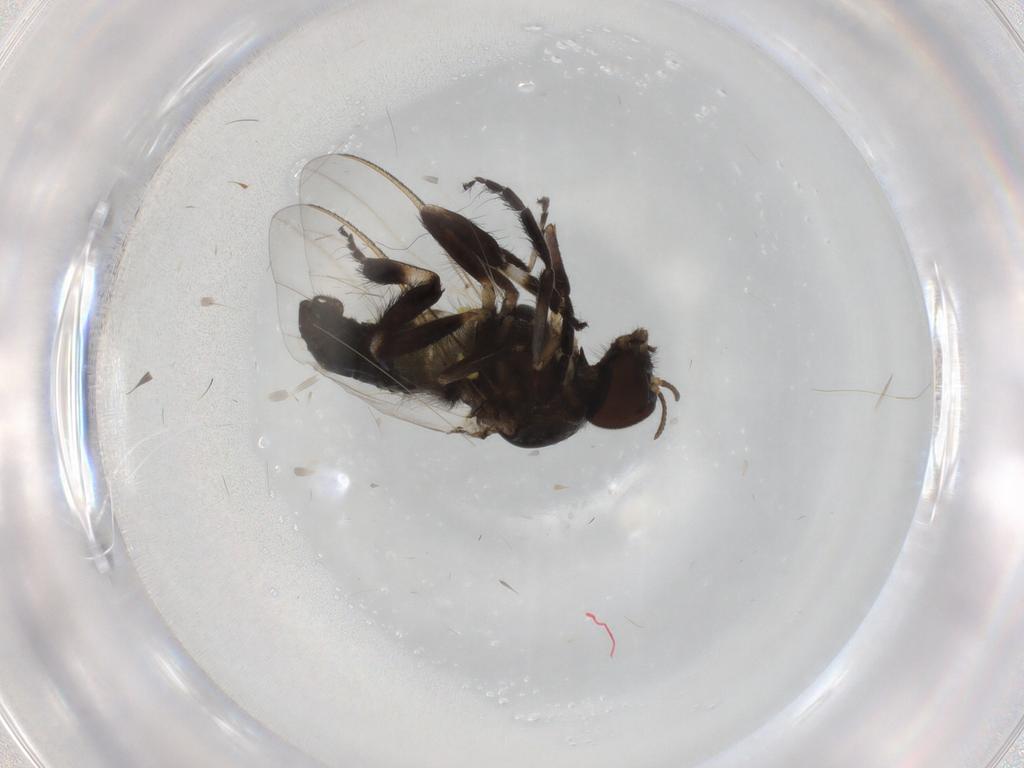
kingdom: Animalia
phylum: Arthropoda
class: Insecta
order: Diptera
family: Simuliidae
